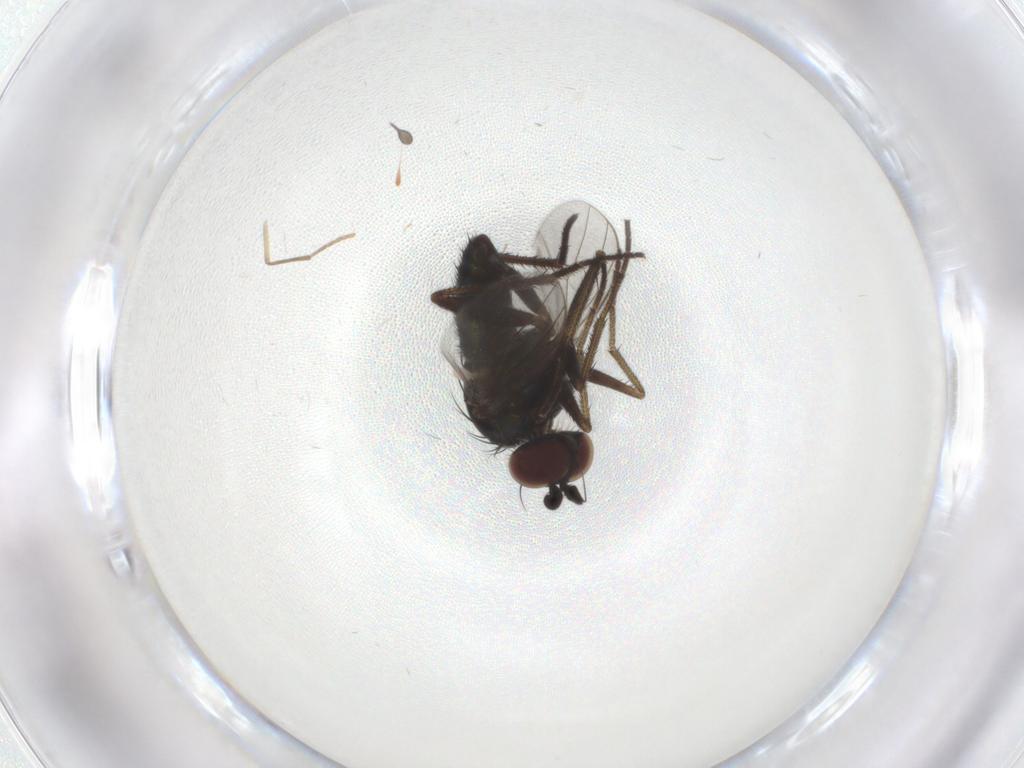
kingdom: Animalia
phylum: Arthropoda
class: Insecta
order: Diptera
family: Dolichopodidae
